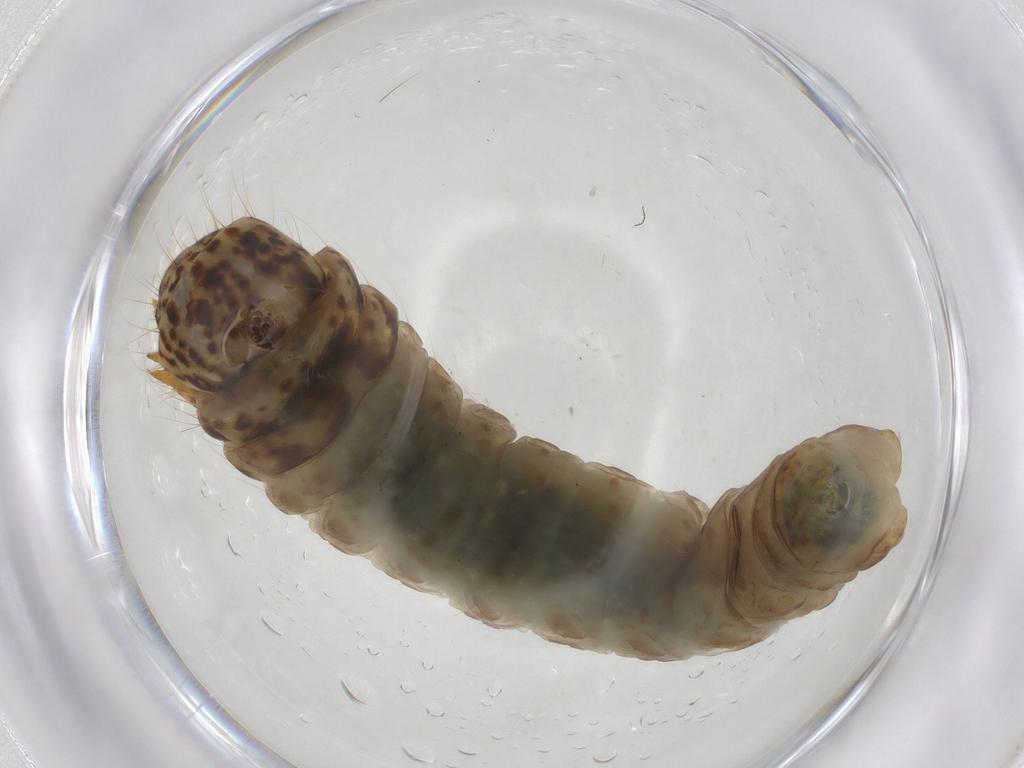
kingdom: Animalia
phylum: Arthropoda
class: Insecta
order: Lepidoptera
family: Psychidae
